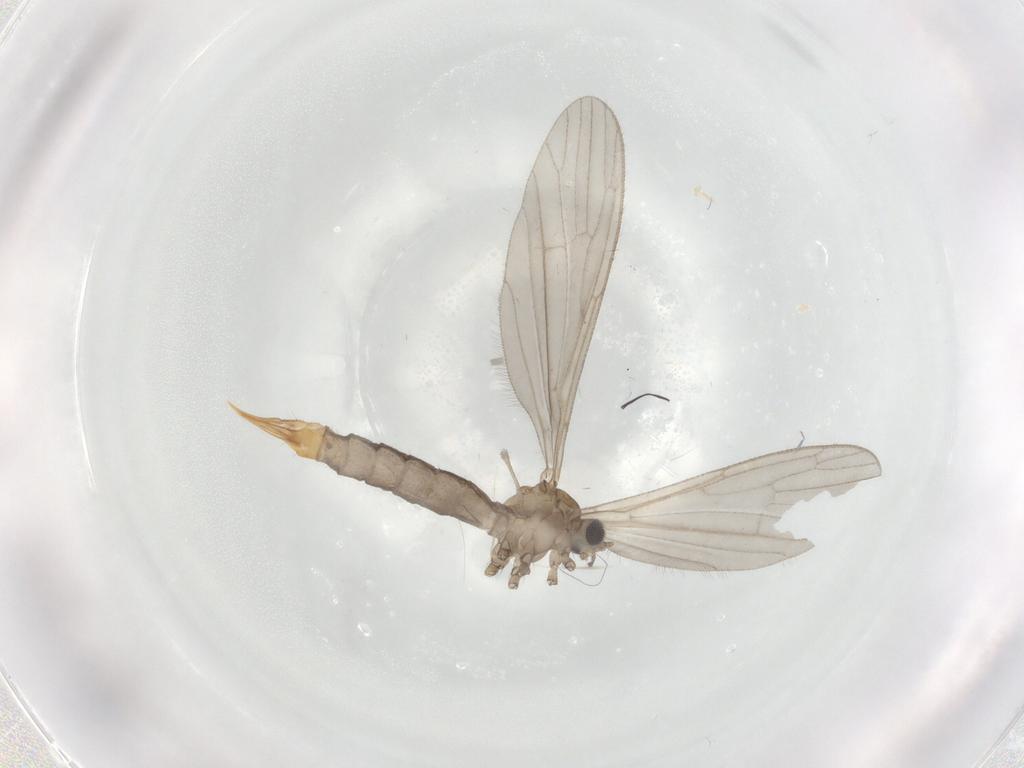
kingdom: Animalia
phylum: Arthropoda
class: Insecta
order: Diptera
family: Limoniidae
